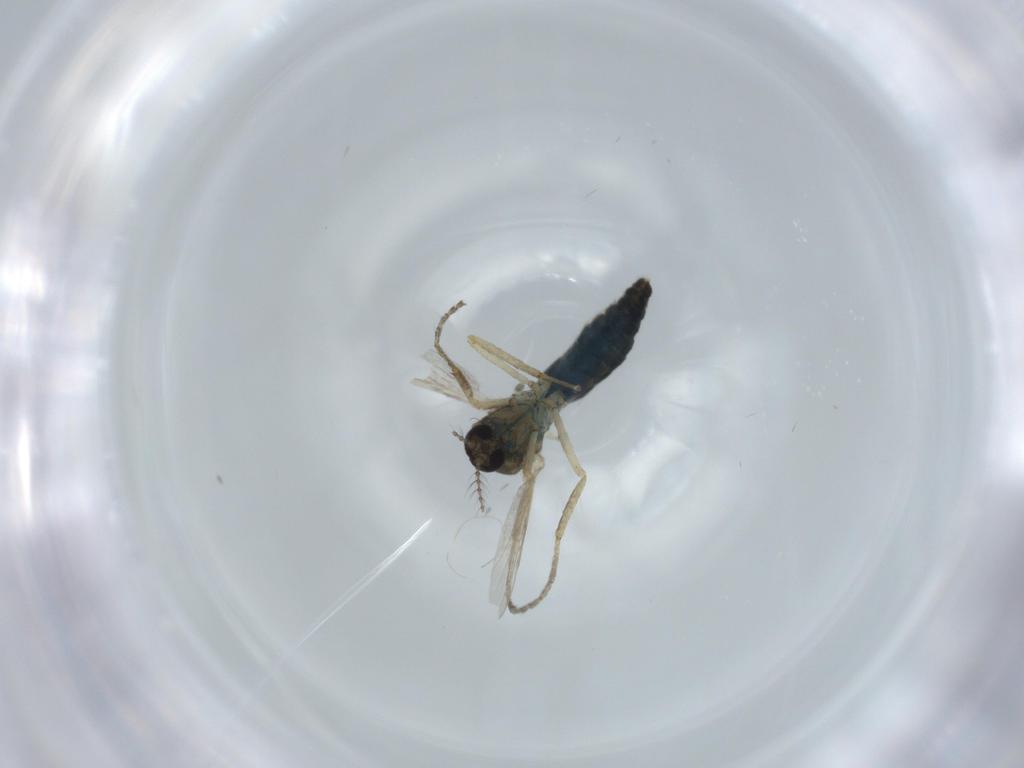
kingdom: Animalia
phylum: Arthropoda
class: Insecta
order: Diptera
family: Ceratopogonidae
